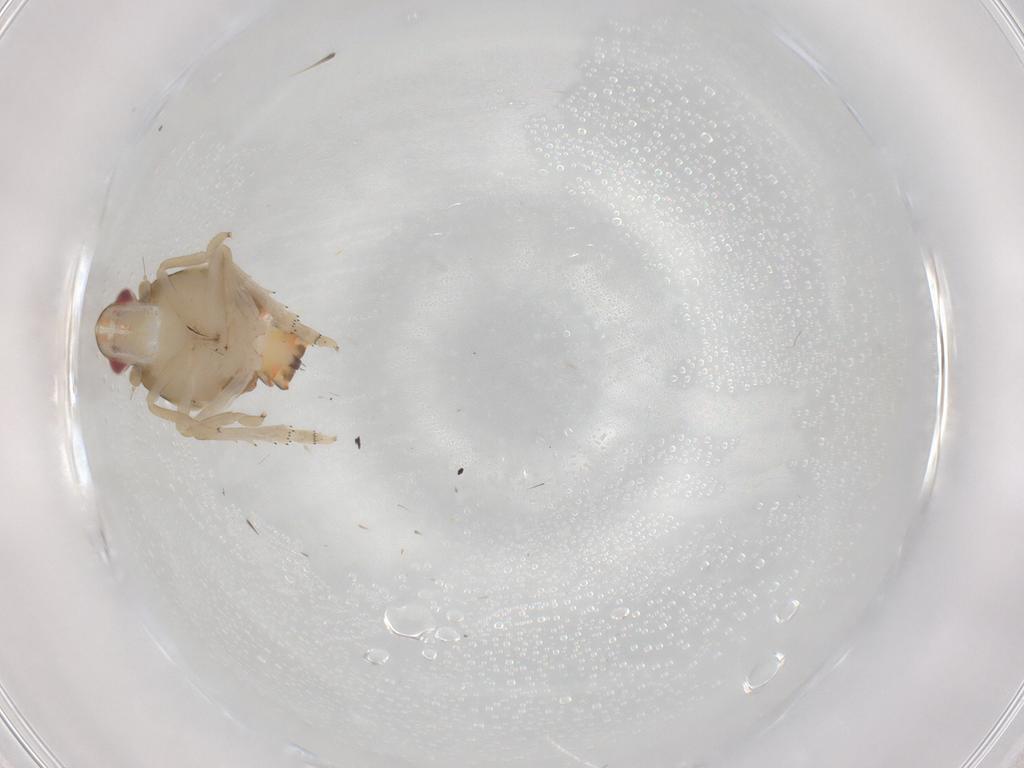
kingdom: Animalia
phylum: Arthropoda
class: Insecta
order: Hemiptera
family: Tropiduchidae
